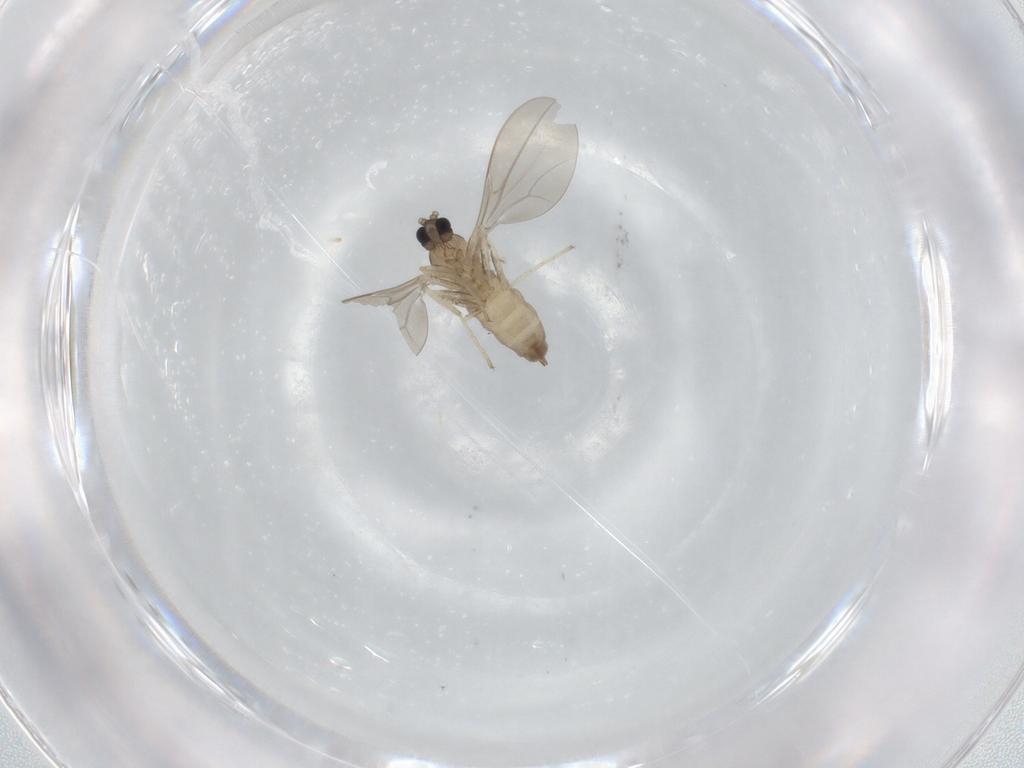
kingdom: Animalia
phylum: Arthropoda
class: Insecta
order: Diptera
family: Cecidomyiidae
